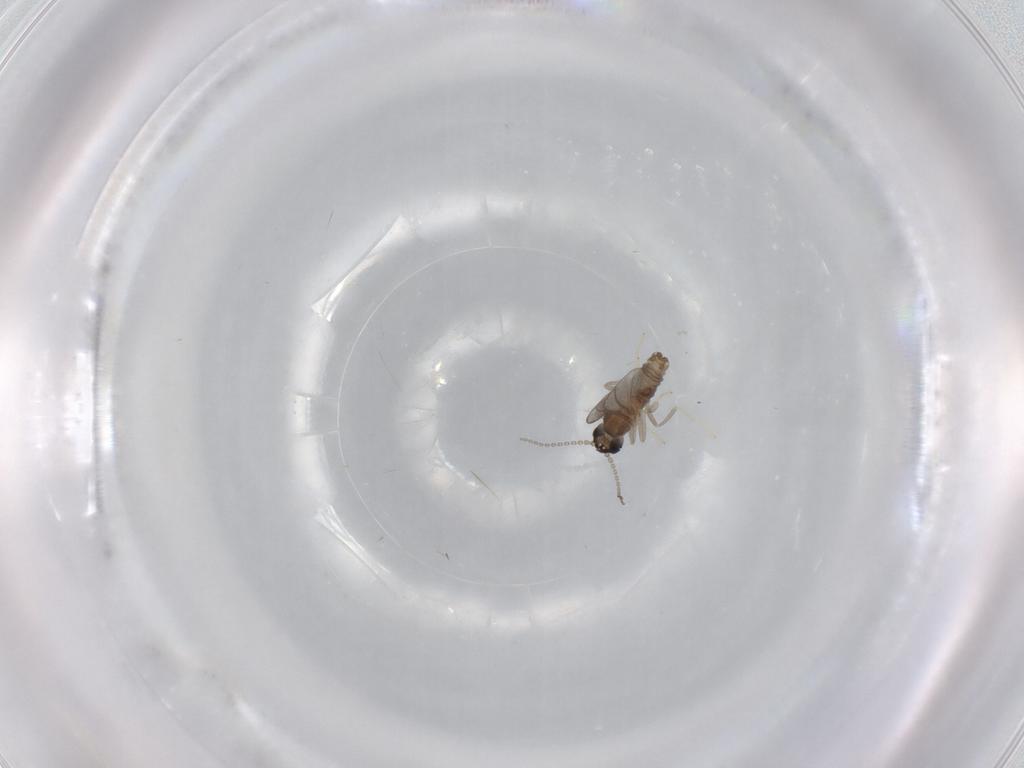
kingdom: Animalia
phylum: Arthropoda
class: Insecta
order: Diptera
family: Cecidomyiidae
